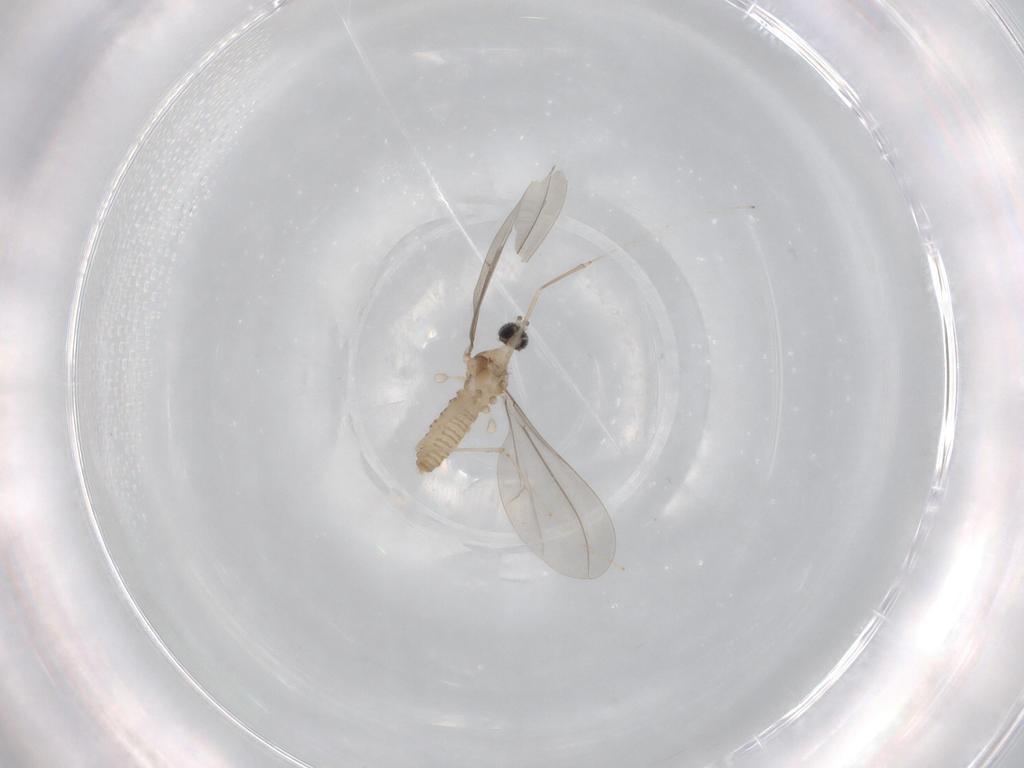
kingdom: Animalia
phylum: Arthropoda
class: Insecta
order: Diptera
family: Cecidomyiidae
